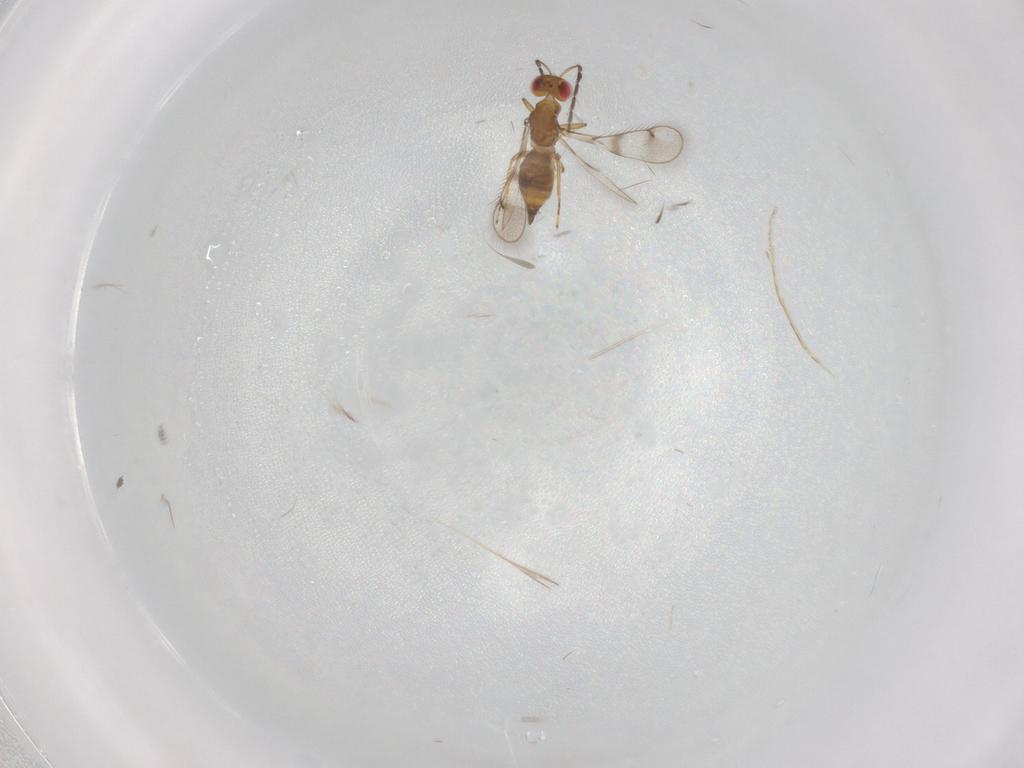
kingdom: Animalia
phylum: Arthropoda
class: Insecta
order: Hymenoptera
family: Eulophidae
